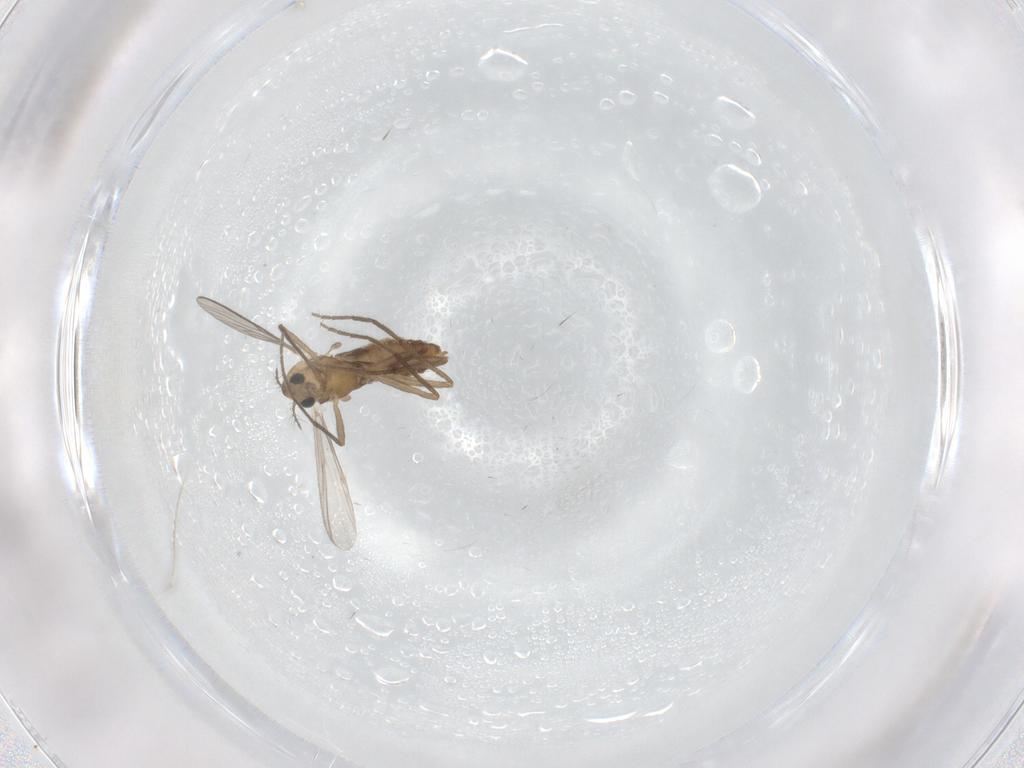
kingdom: Animalia
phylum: Arthropoda
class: Insecta
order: Diptera
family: Chironomidae
